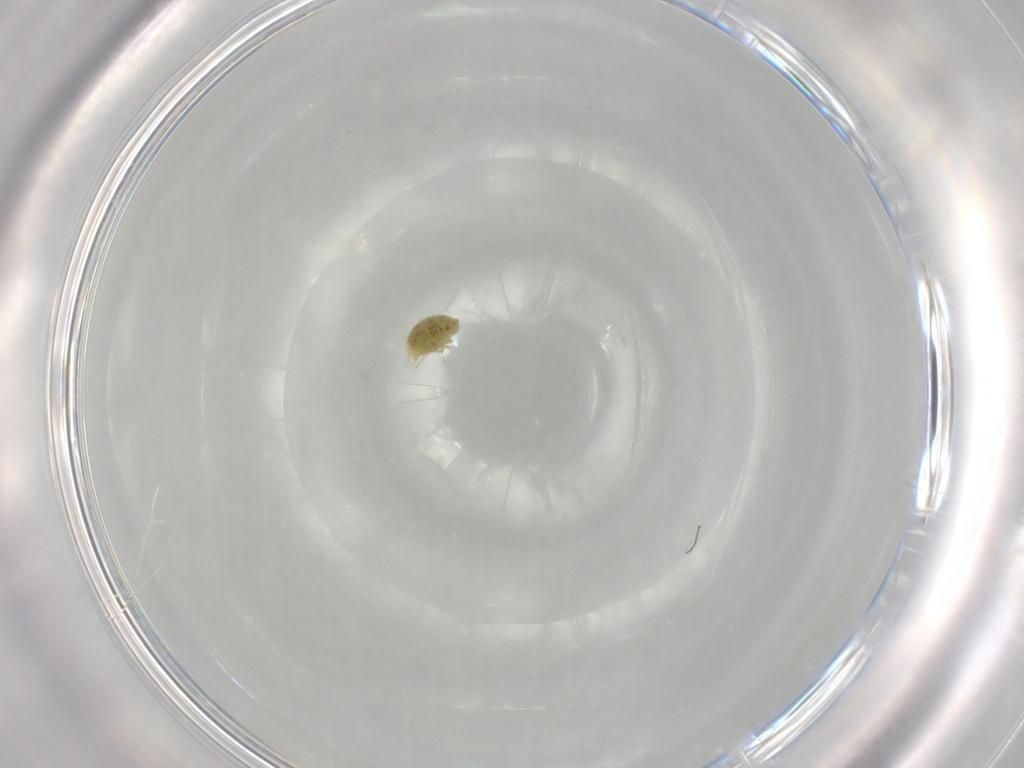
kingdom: Animalia
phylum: Arthropoda
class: Arachnida
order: Trombidiformes
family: Tetranychidae
